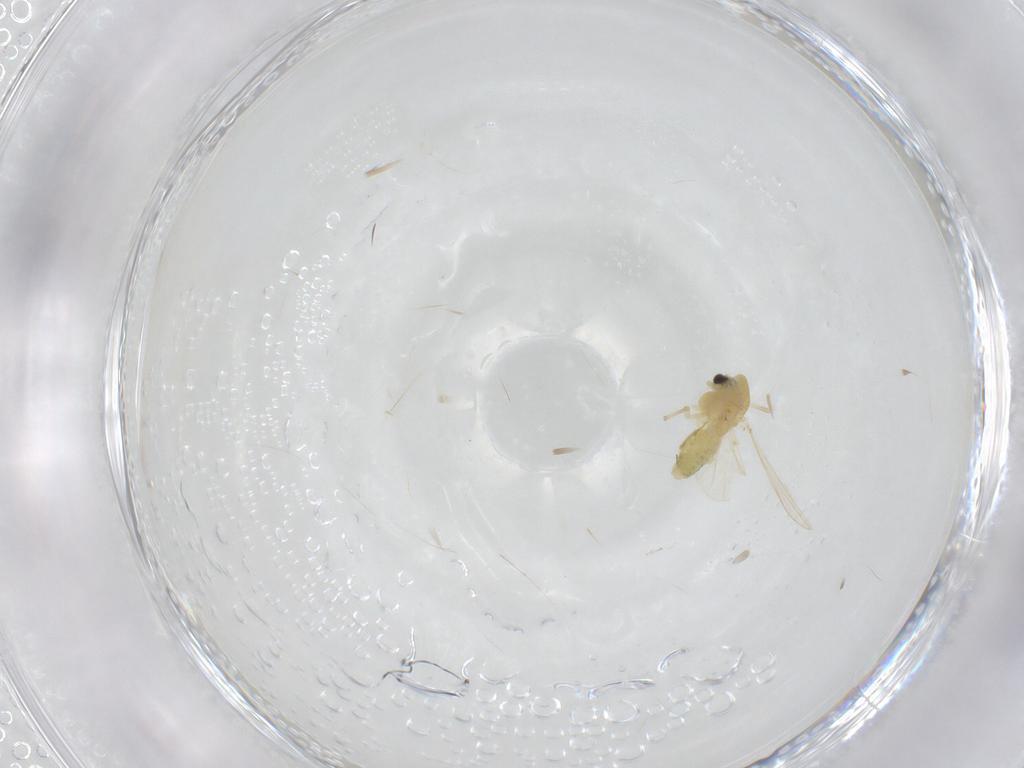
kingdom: Animalia
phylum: Arthropoda
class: Insecta
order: Diptera
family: Chironomidae
